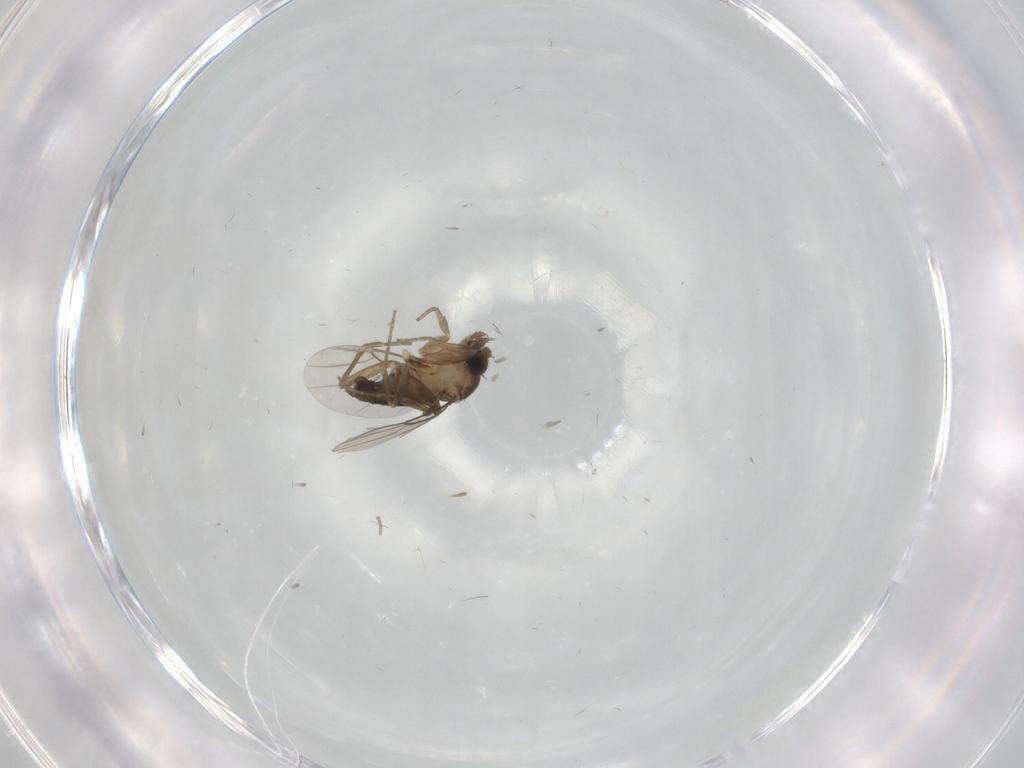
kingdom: Animalia
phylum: Arthropoda
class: Insecta
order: Diptera
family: Phoridae
